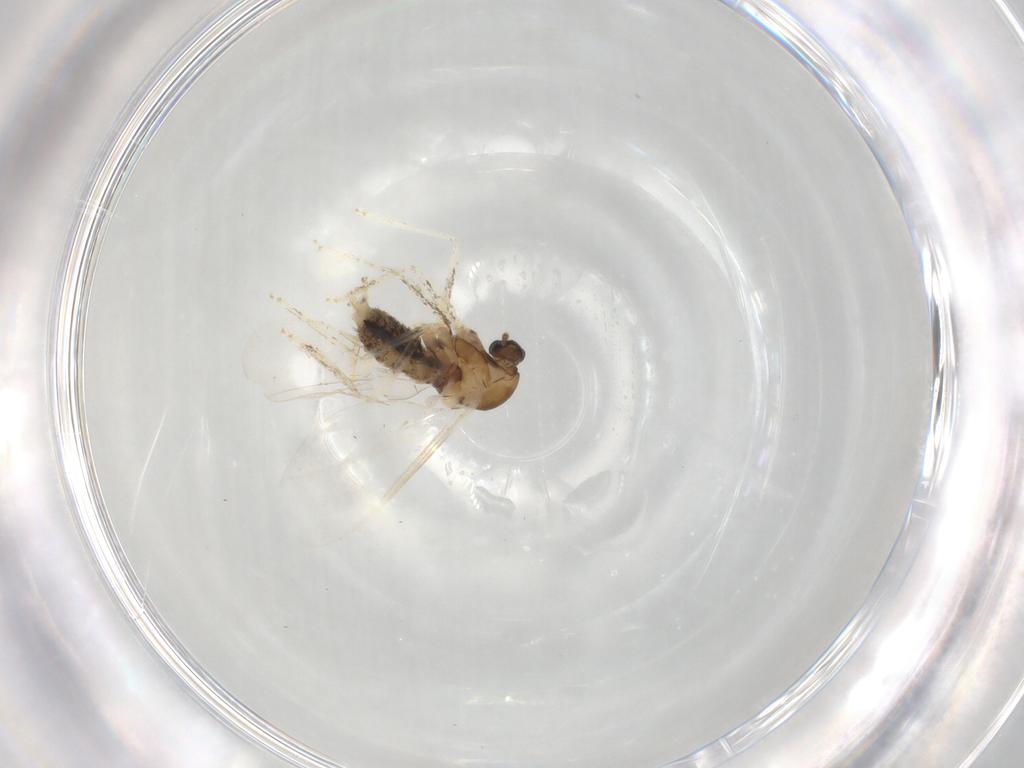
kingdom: Animalia
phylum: Arthropoda
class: Insecta
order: Diptera
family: Cecidomyiidae
